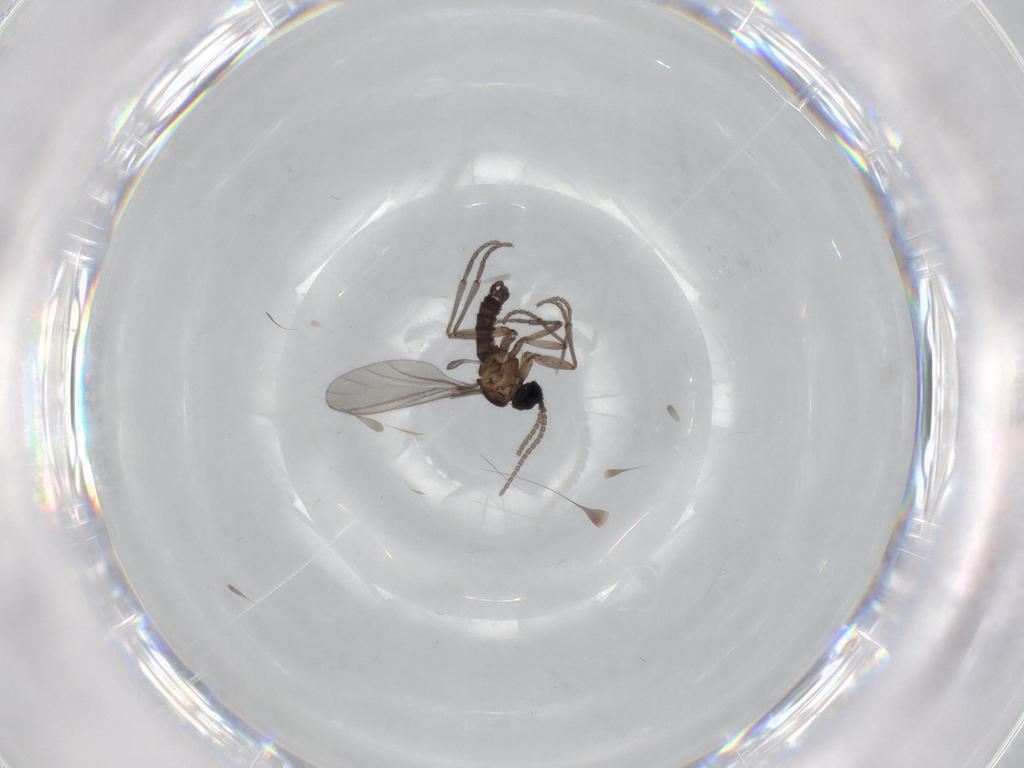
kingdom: Animalia
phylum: Arthropoda
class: Insecta
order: Diptera
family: Sciaridae
